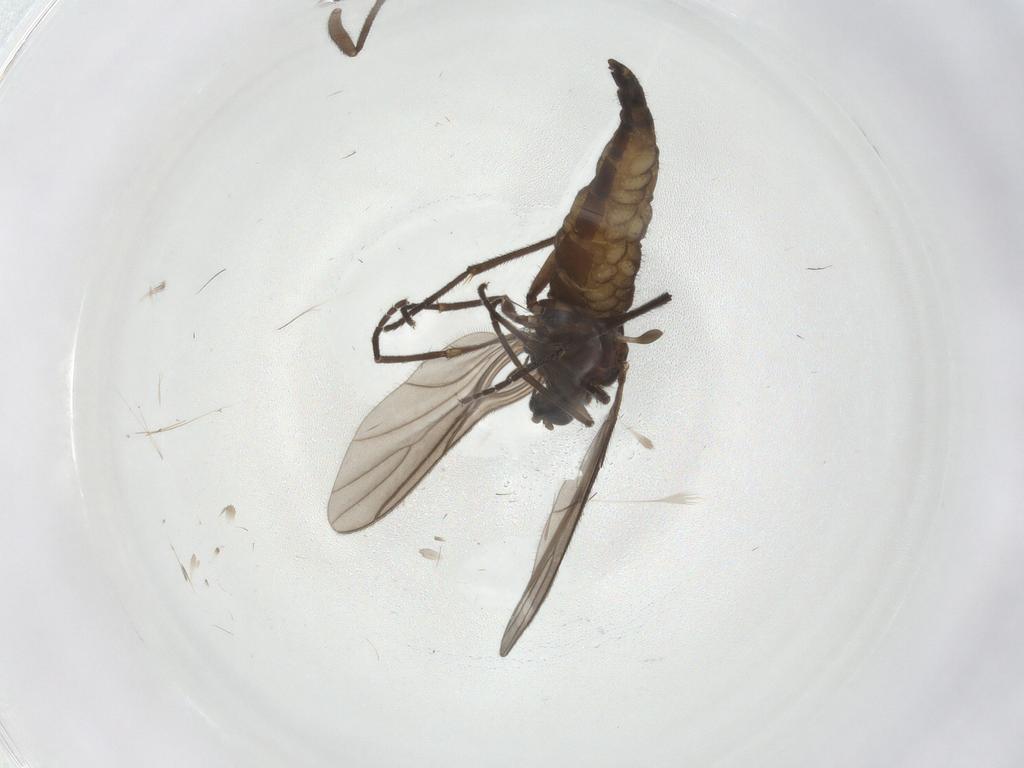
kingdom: Animalia
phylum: Arthropoda
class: Insecta
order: Diptera
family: Sciaridae
